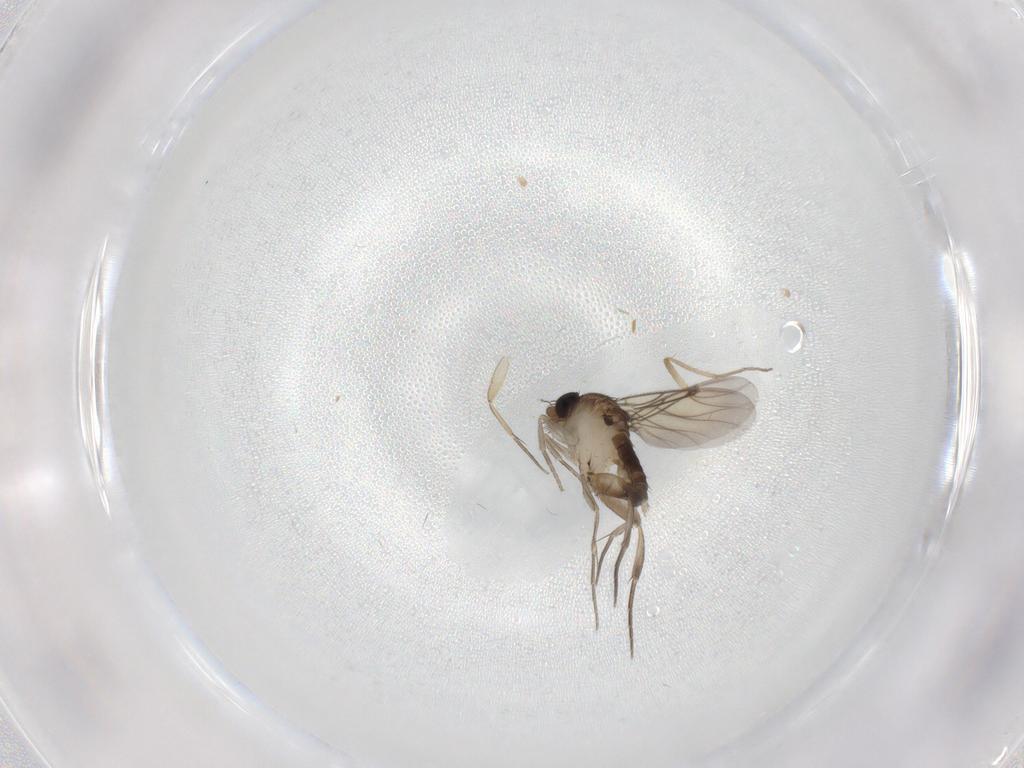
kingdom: Animalia
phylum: Arthropoda
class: Insecta
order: Diptera
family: Phoridae
